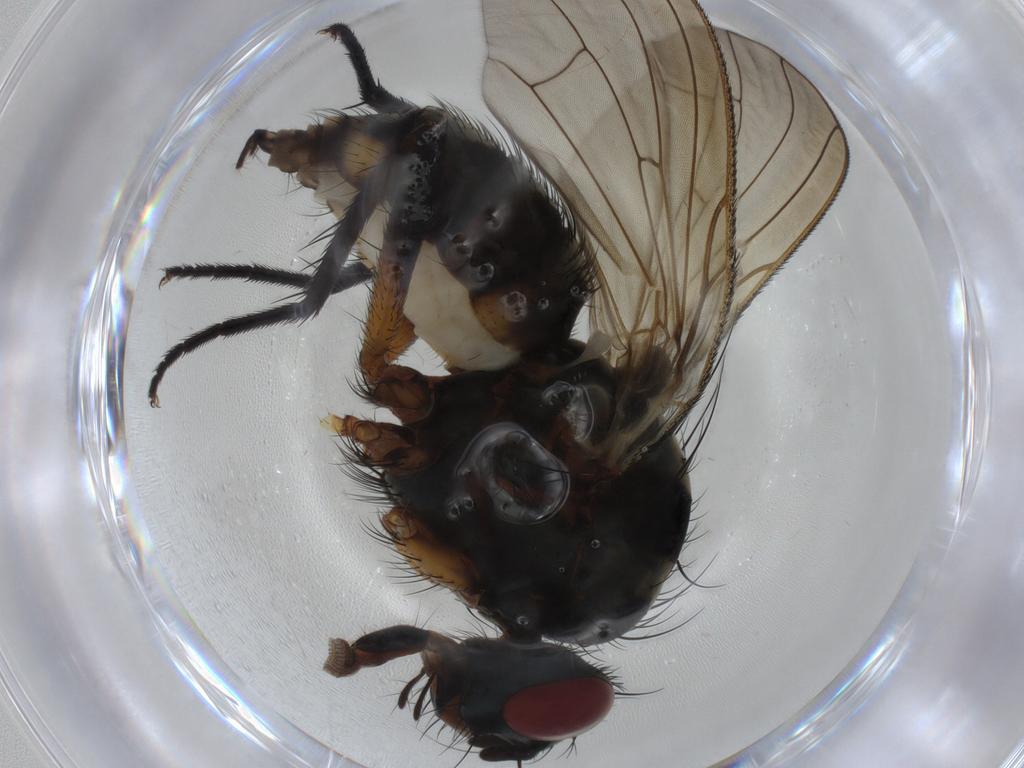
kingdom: Animalia
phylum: Arthropoda
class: Insecta
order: Diptera
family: Anthomyiidae
